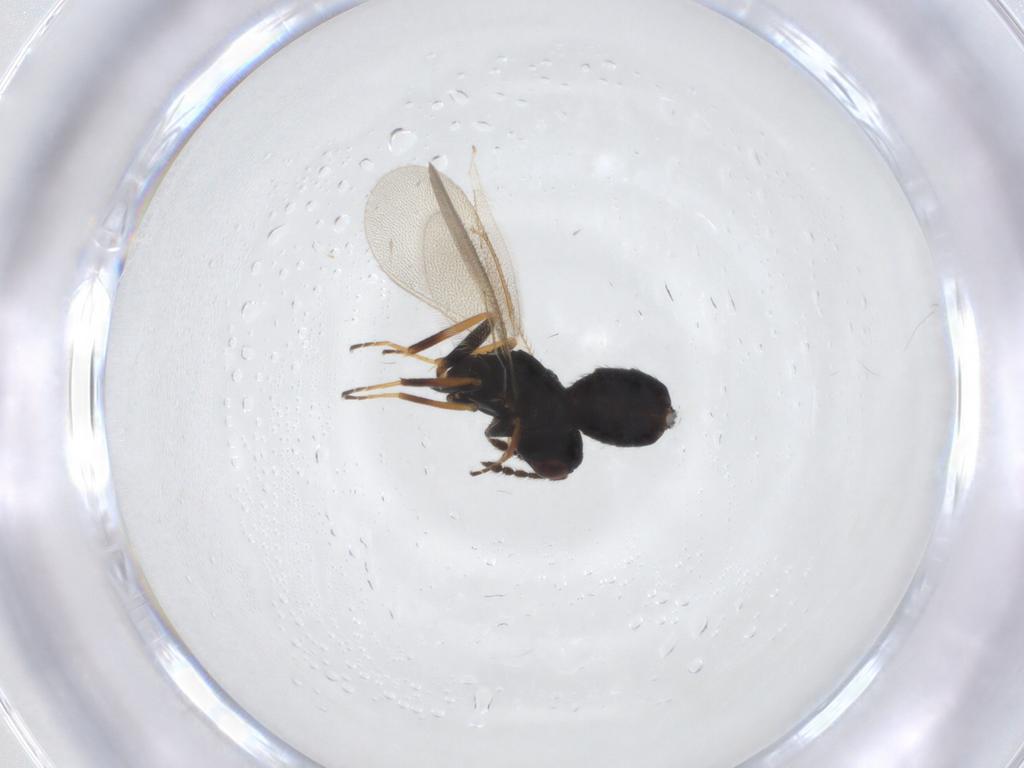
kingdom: Animalia
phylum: Arthropoda
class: Insecta
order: Hymenoptera
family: Eulophidae
